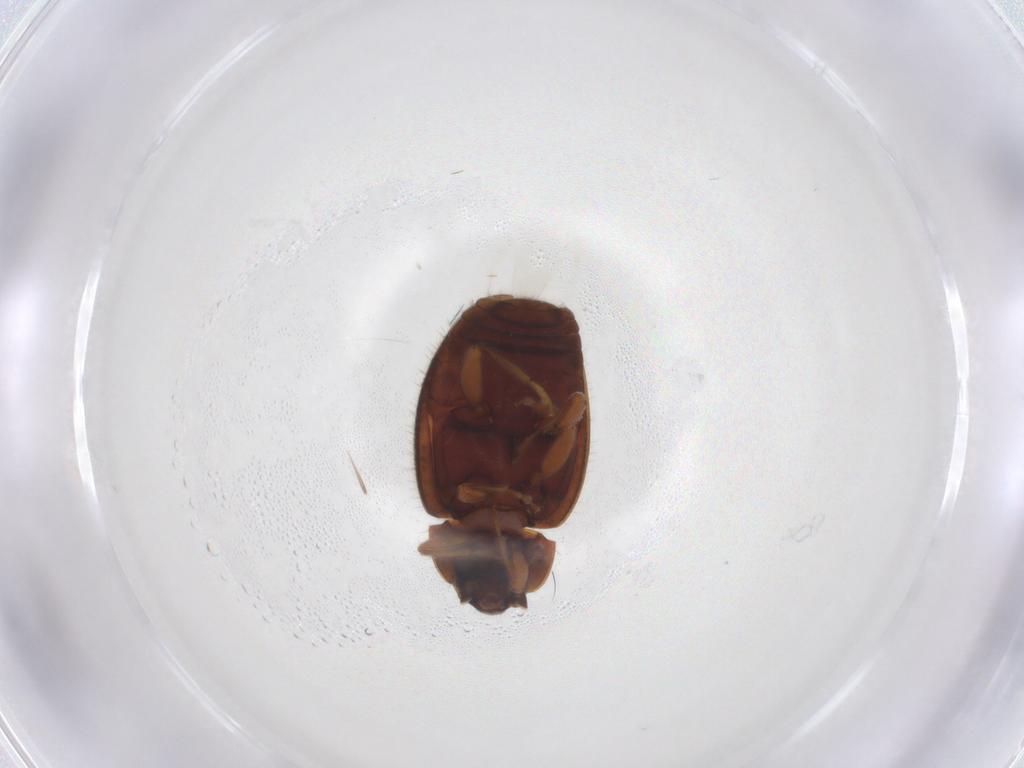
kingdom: Animalia
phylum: Arthropoda
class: Insecta
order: Coleoptera
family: Coccinellidae
